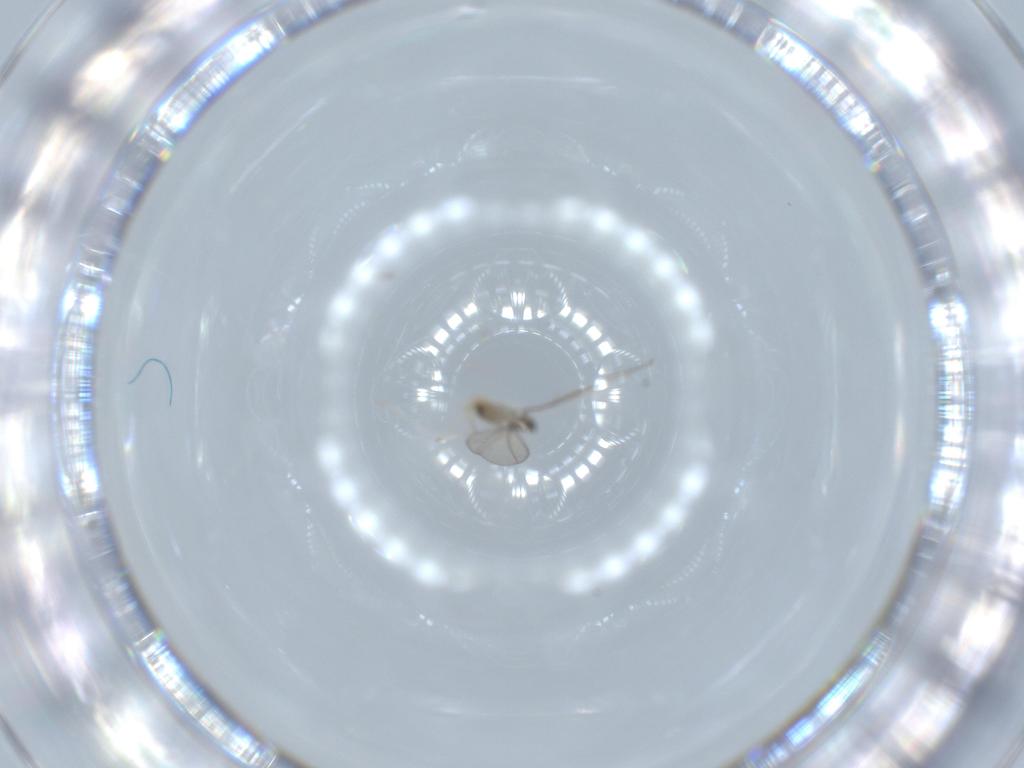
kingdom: Animalia
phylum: Arthropoda
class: Insecta
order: Diptera
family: Cecidomyiidae
